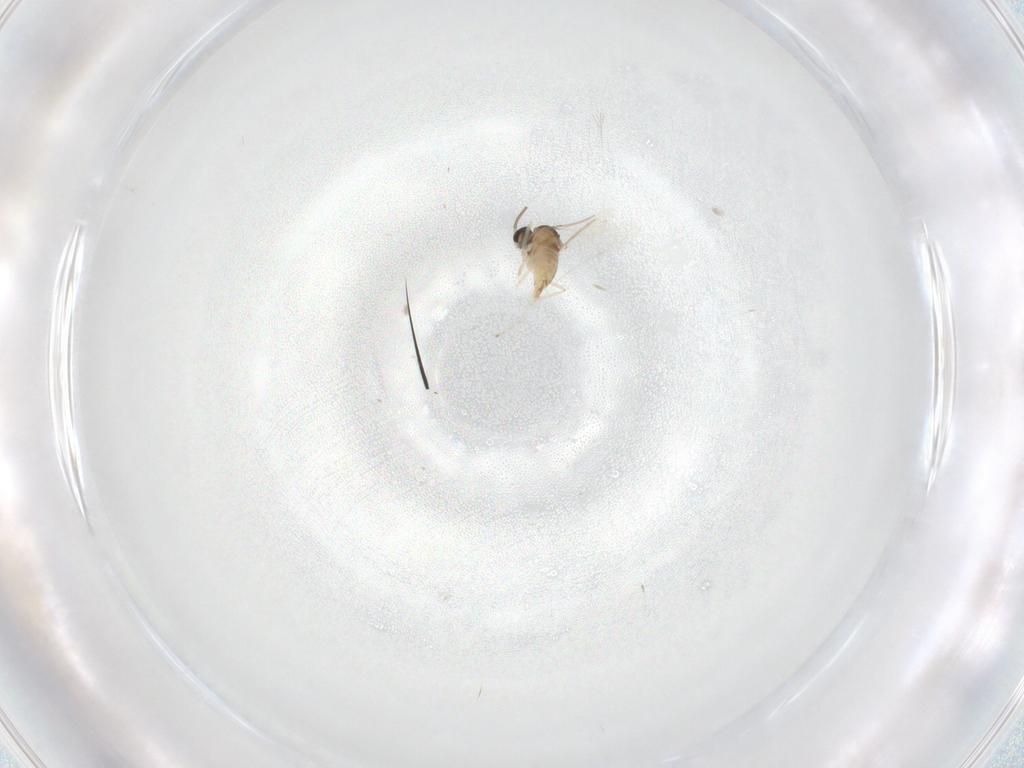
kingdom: Animalia
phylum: Arthropoda
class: Insecta
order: Diptera
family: Cecidomyiidae
